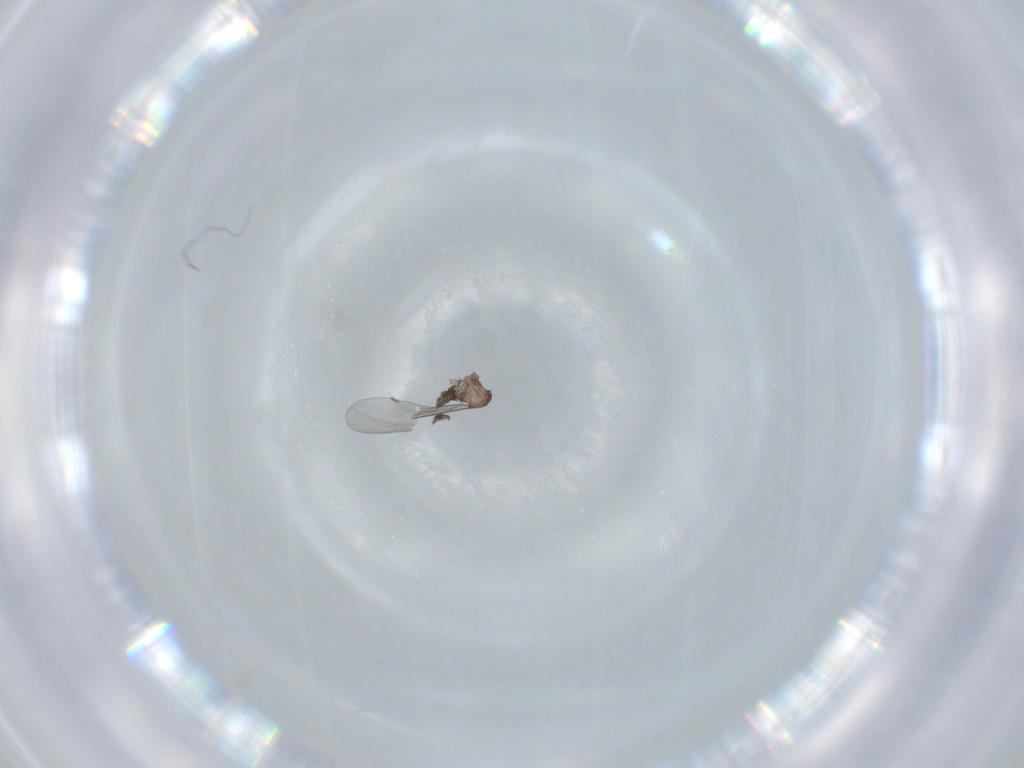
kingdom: Animalia
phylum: Arthropoda
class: Insecta
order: Diptera
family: Cecidomyiidae
